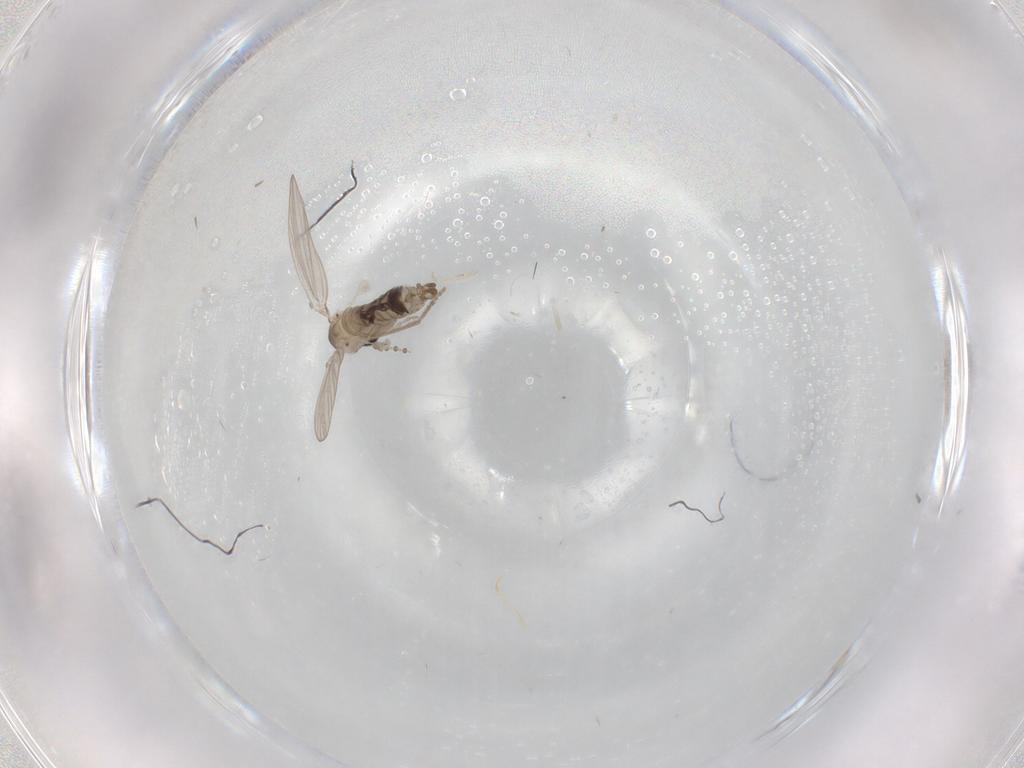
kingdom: Animalia
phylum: Arthropoda
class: Insecta
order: Diptera
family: Psychodidae
